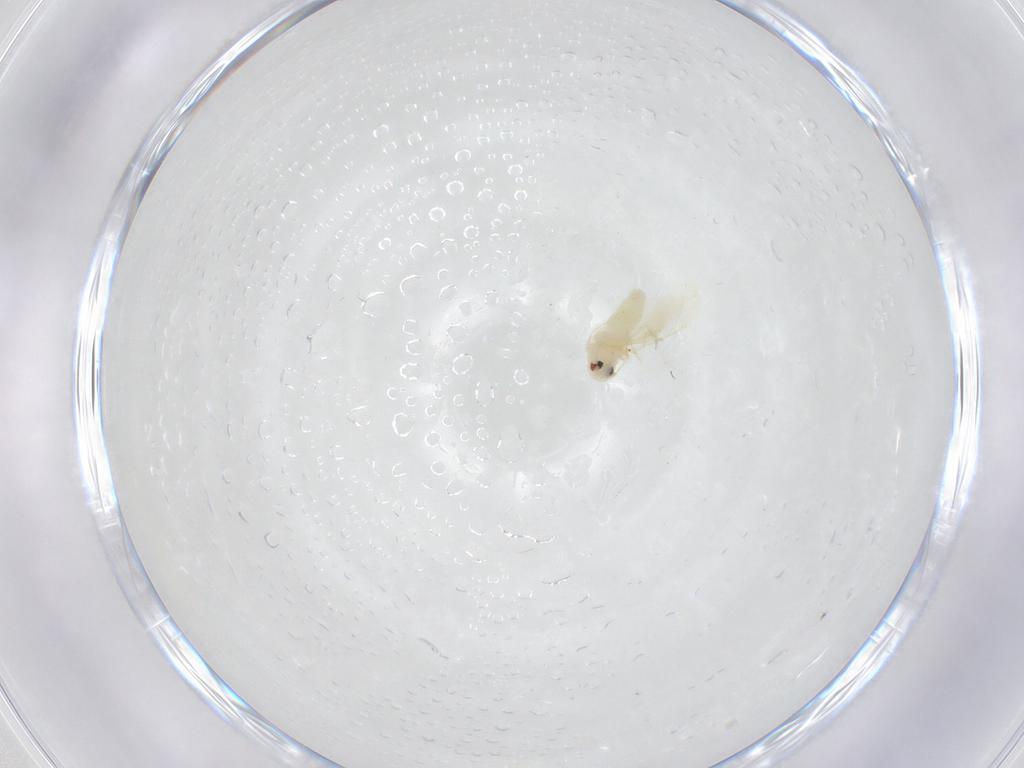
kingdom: Animalia
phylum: Arthropoda
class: Insecta
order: Diptera
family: Chironomidae
